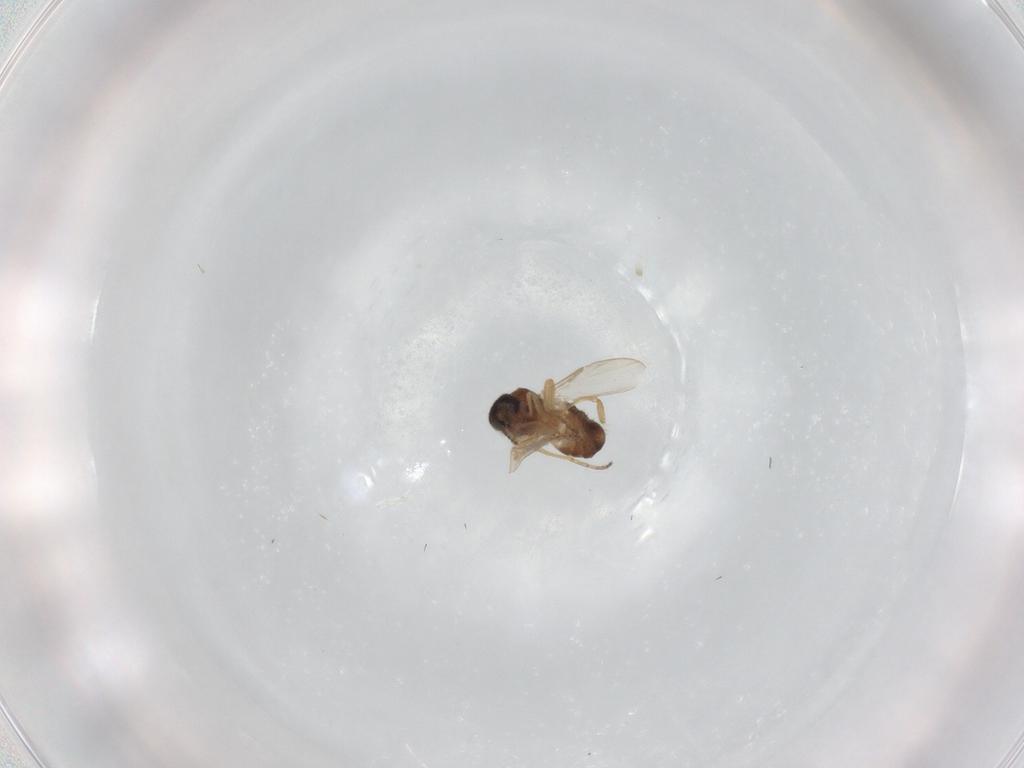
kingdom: Animalia
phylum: Arthropoda
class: Insecta
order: Diptera
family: Ceratopogonidae
